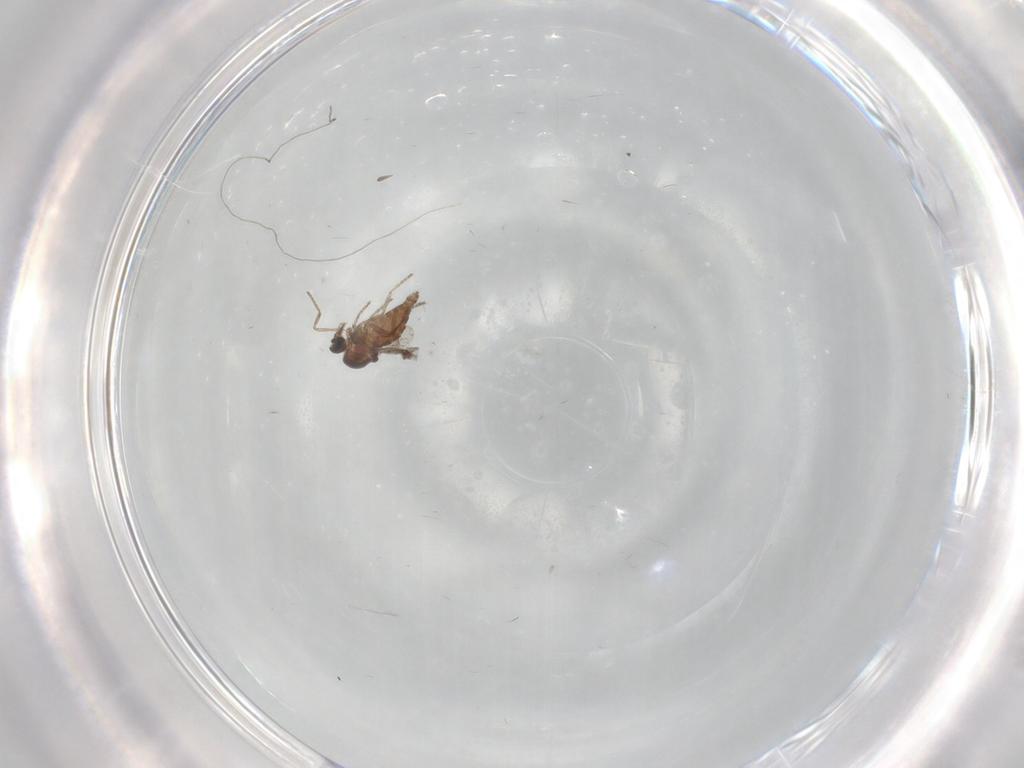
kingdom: Animalia
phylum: Arthropoda
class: Insecta
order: Diptera
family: Ceratopogonidae
